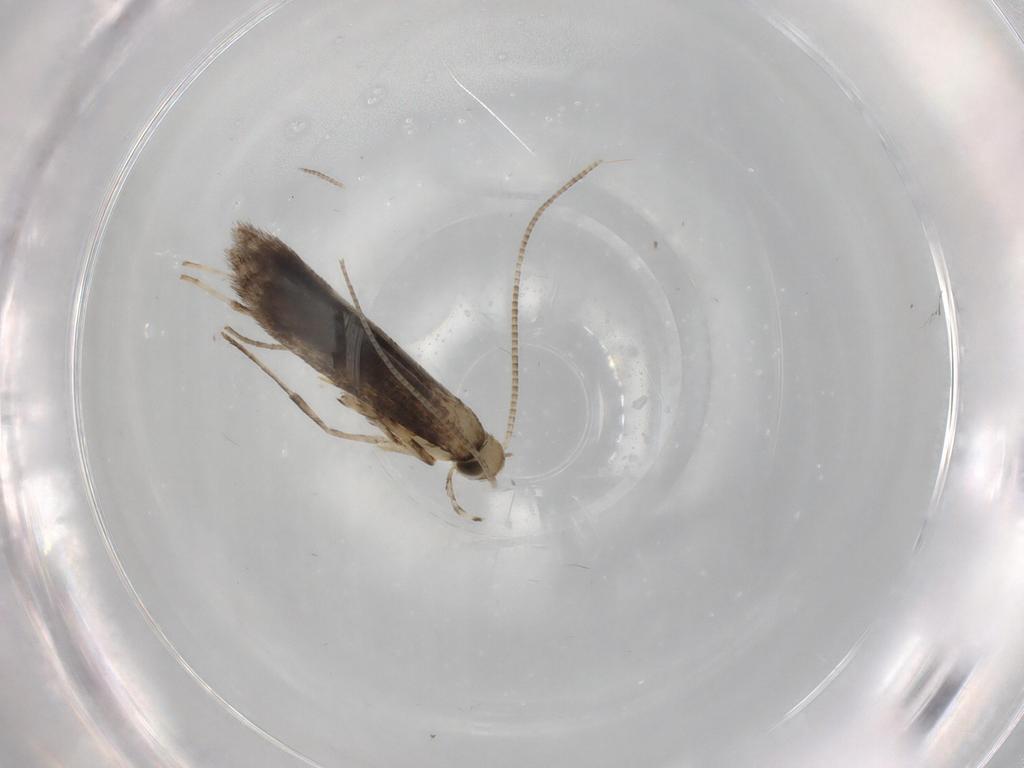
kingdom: Animalia
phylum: Arthropoda
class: Insecta
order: Lepidoptera
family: Gracillariidae
